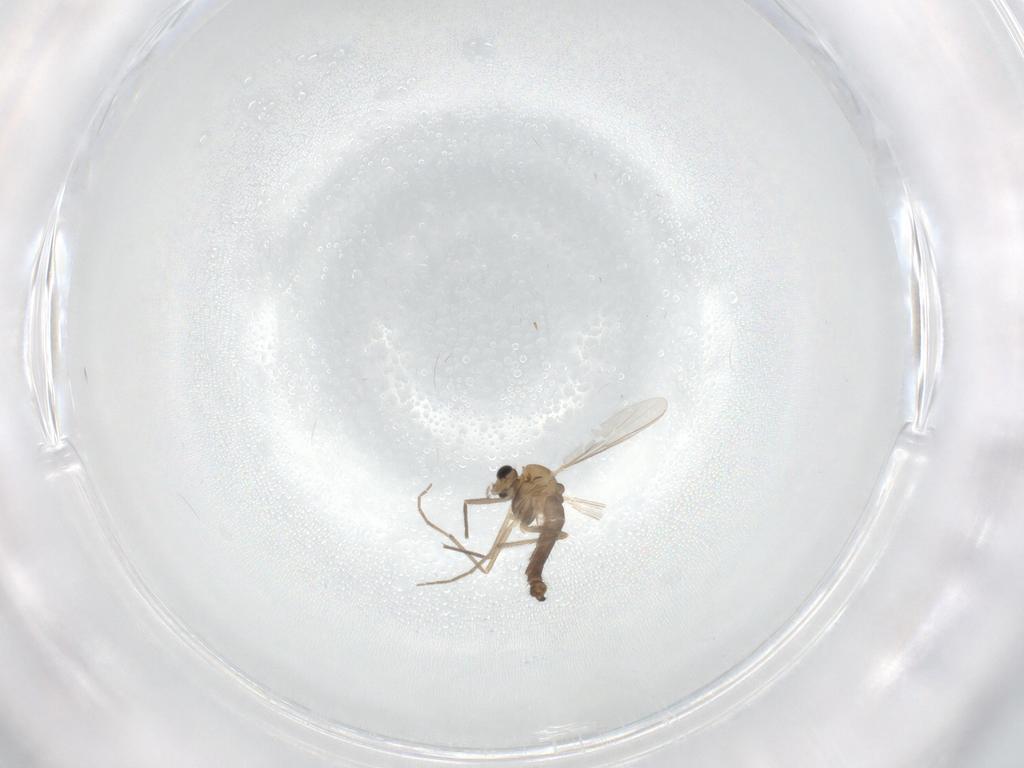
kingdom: Animalia
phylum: Arthropoda
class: Insecta
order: Diptera
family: Chironomidae
